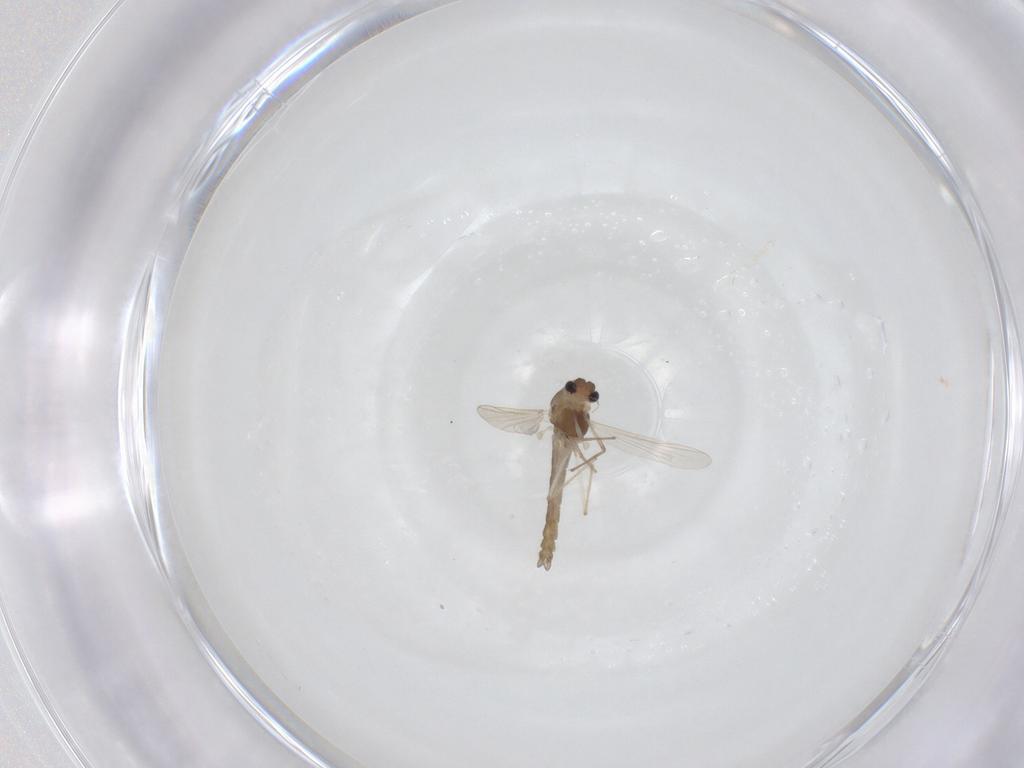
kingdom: Animalia
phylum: Arthropoda
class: Insecta
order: Diptera
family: Chironomidae
